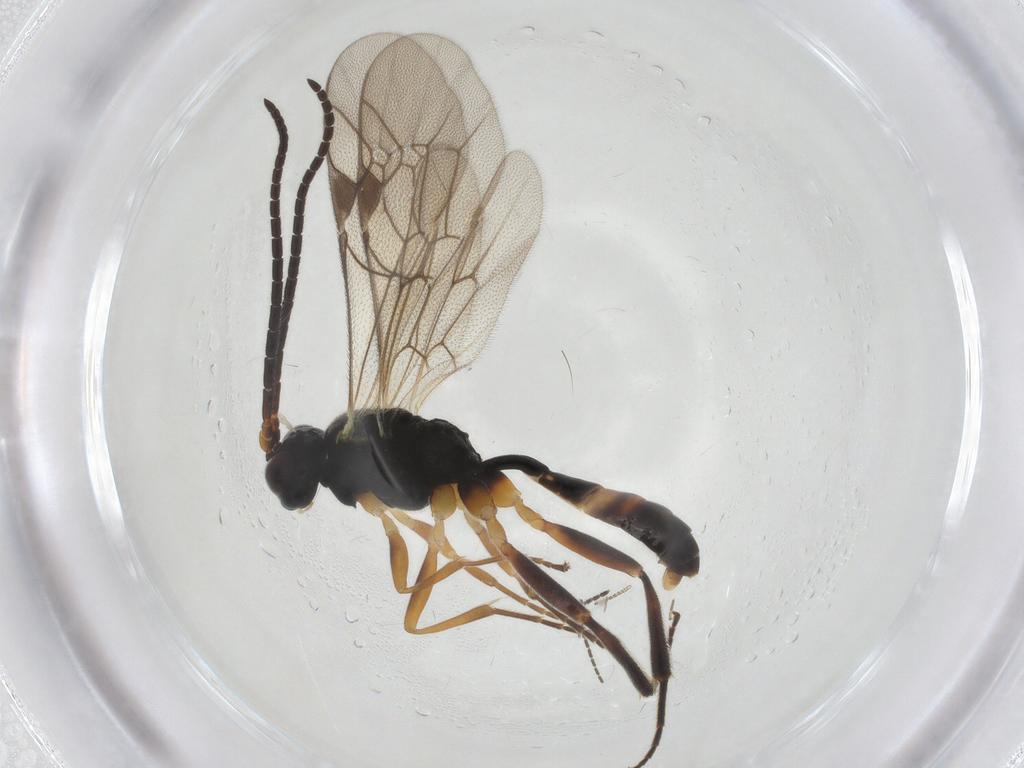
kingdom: Animalia
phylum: Arthropoda
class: Insecta
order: Hymenoptera
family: Ichneumonidae
